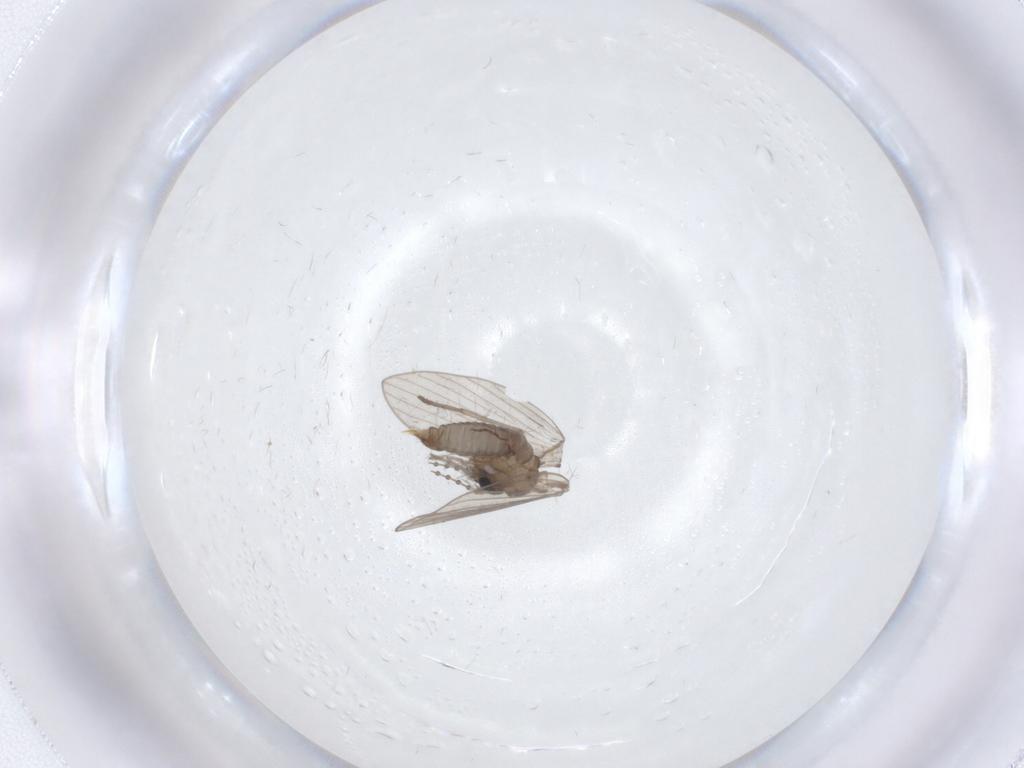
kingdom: Animalia
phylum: Arthropoda
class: Insecta
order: Diptera
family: Psychodidae
